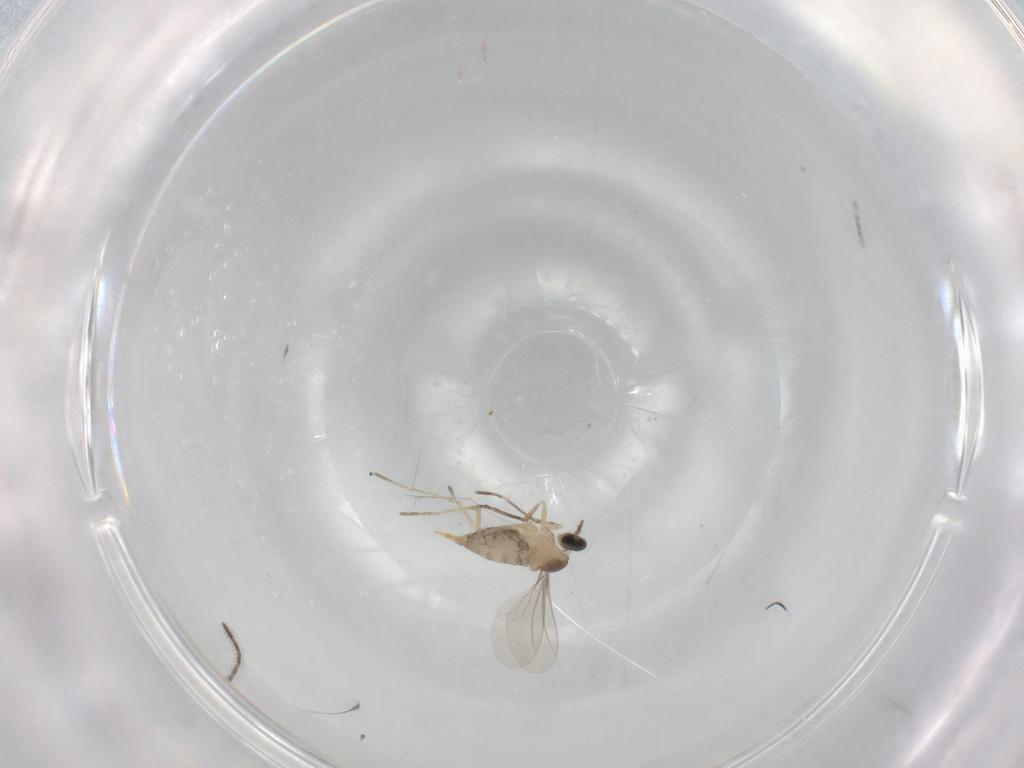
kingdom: Animalia
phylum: Arthropoda
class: Insecta
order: Diptera
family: Cecidomyiidae
